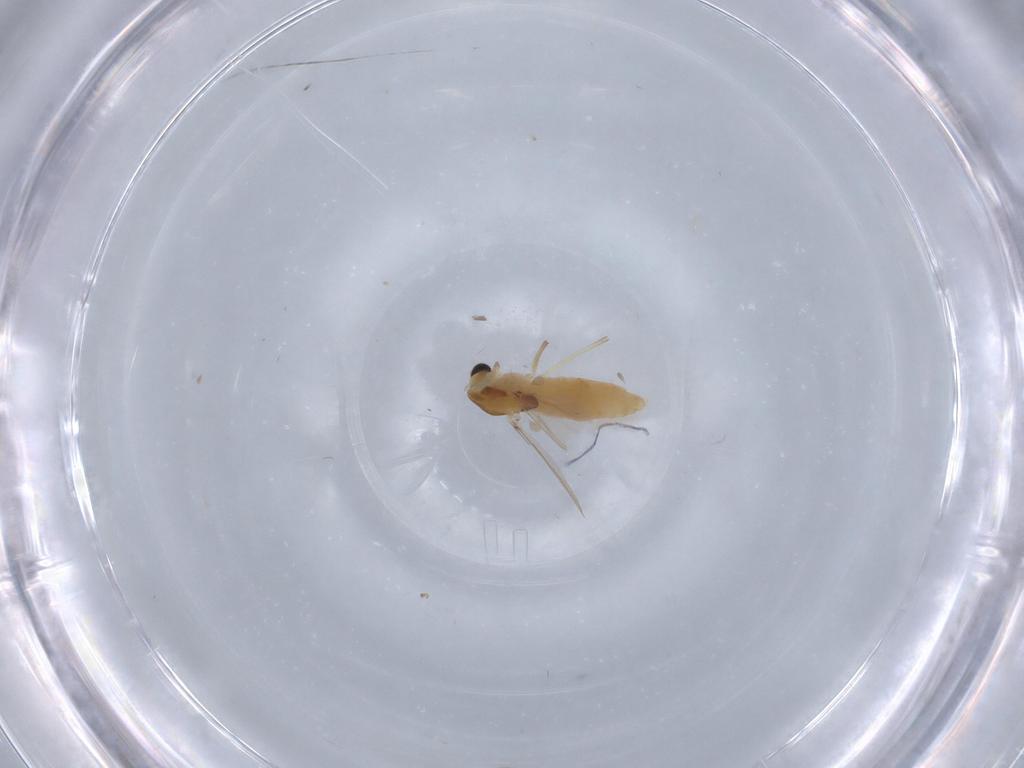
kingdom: Animalia
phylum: Arthropoda
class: Insecta
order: Diptera
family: Chironomidae
